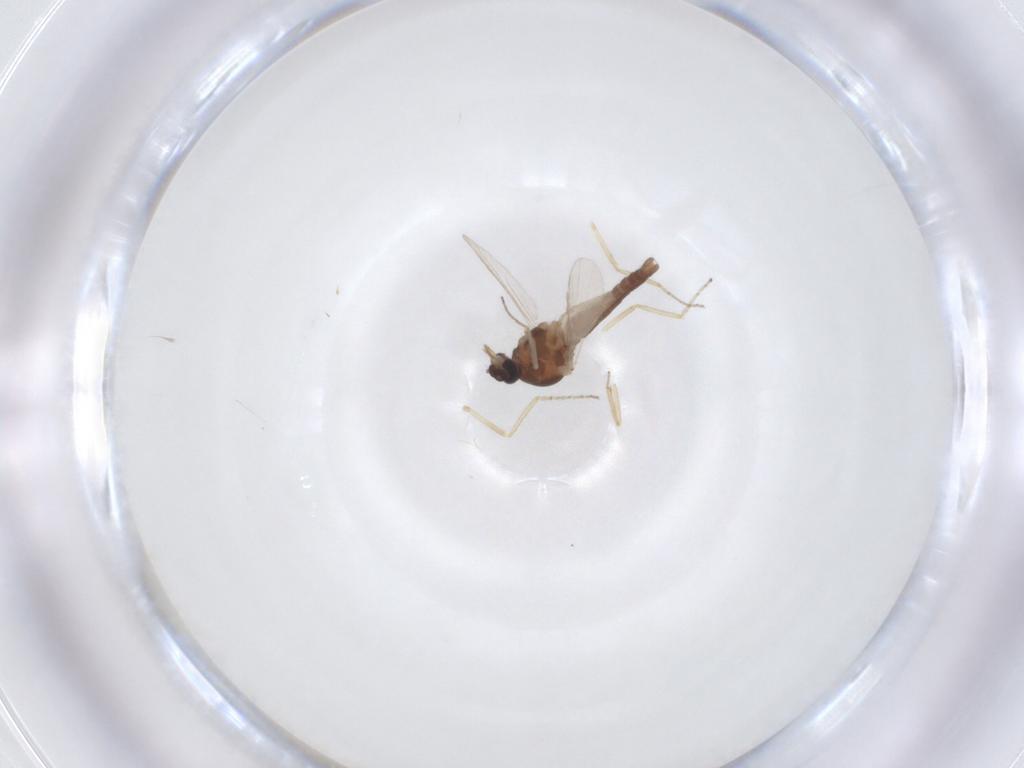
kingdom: Animalia
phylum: Arthropoda
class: Insecta
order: Diptera
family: Ceratopogonidae
